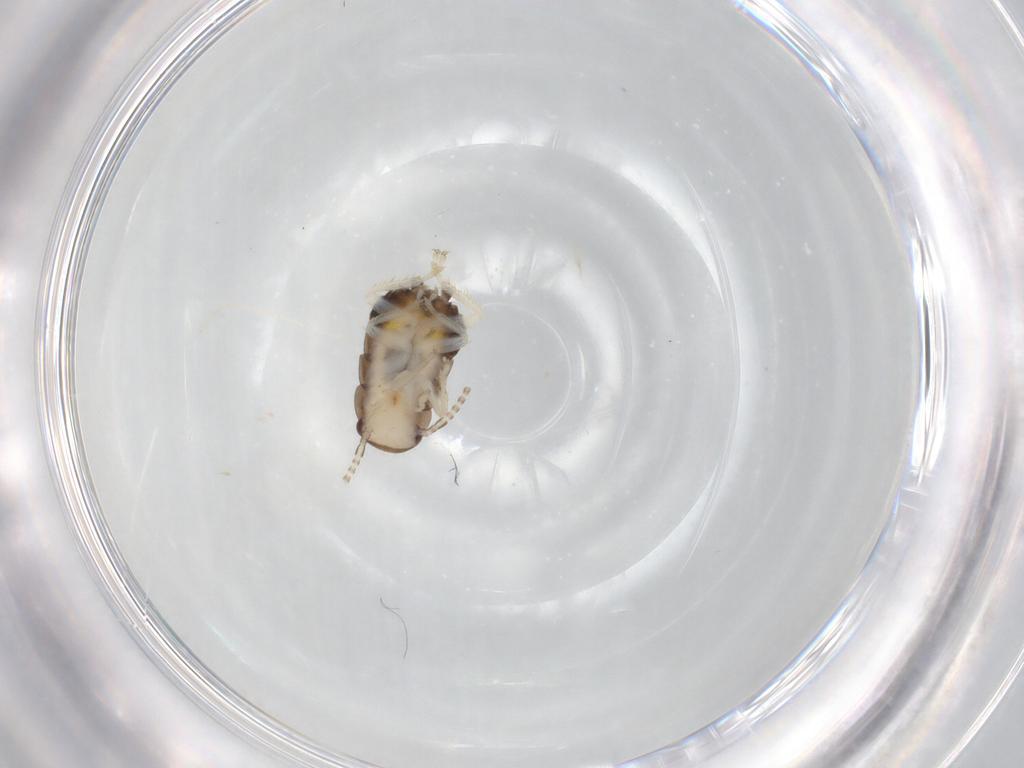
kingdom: Animalia
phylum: Arthropoda
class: Insecta
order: Blattodea
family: Ectobiidae
